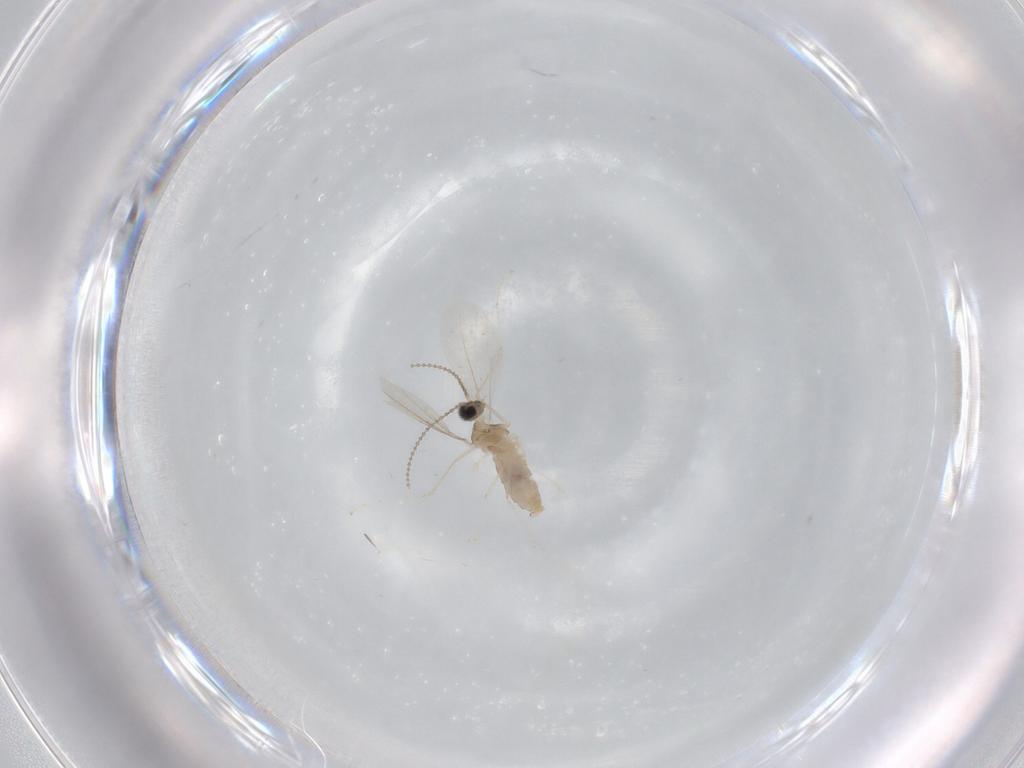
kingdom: Animalia
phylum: Arthropoda
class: Insecta
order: Diptera
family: Cecidomyiidae
